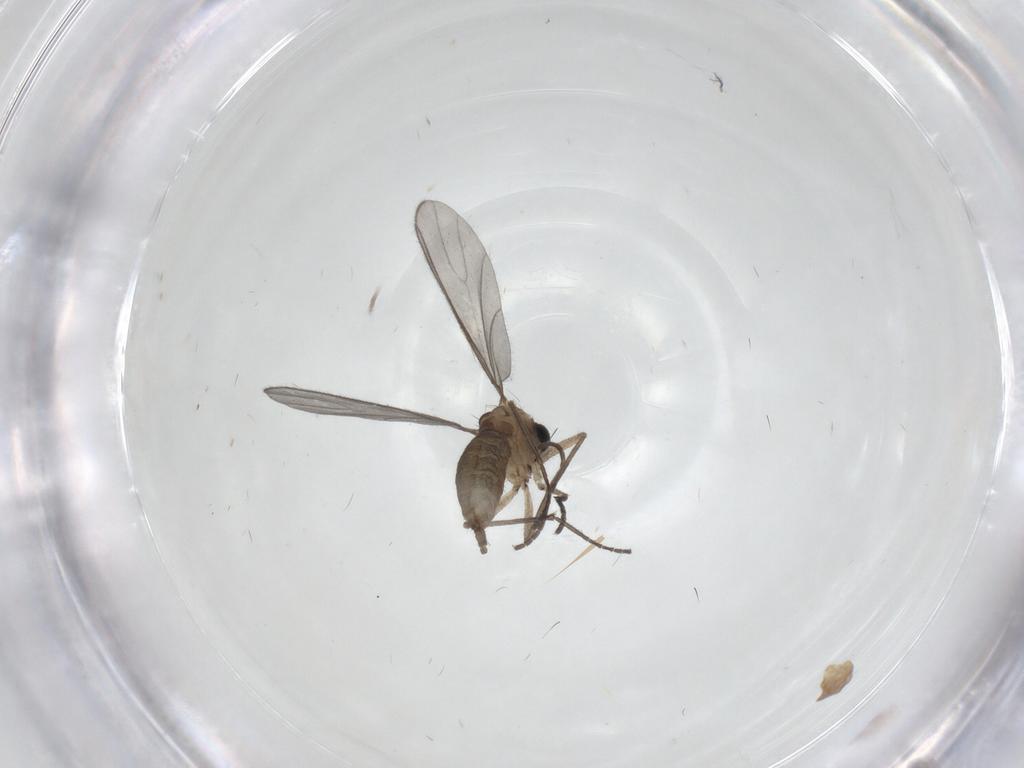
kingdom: Animalia
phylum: Arthropoda
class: Insecta
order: Diptera
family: Sciaridae
